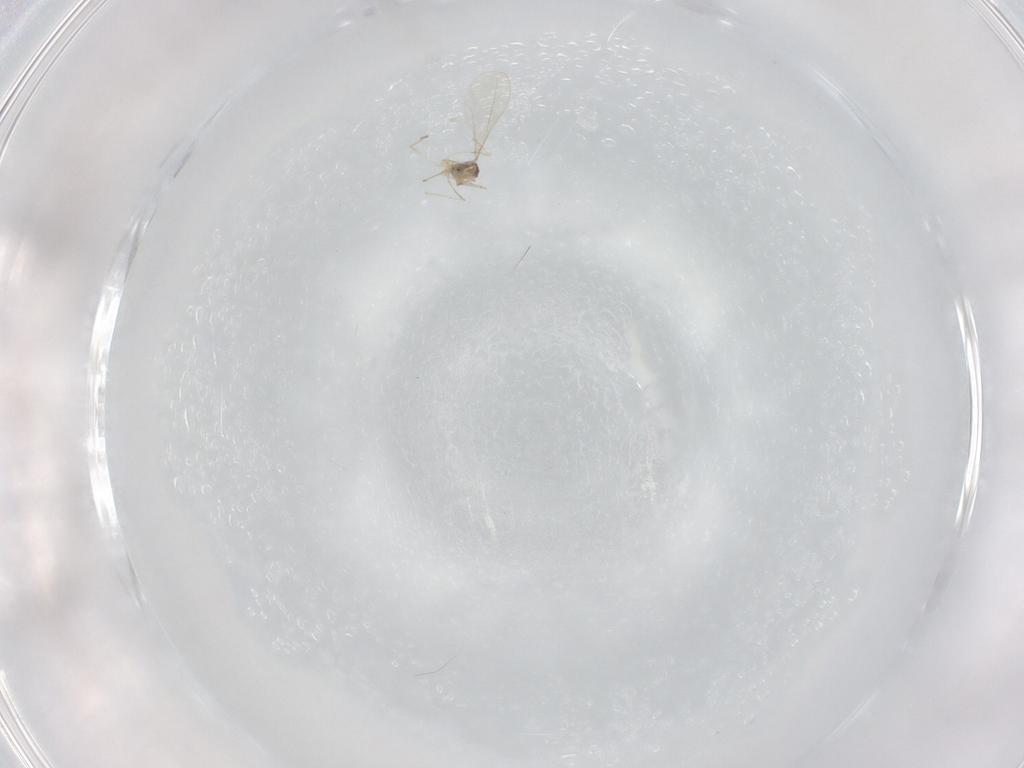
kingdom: Animalia
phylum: Arthropoda
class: Insecta
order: Diptera
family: Cecidomyiidae
